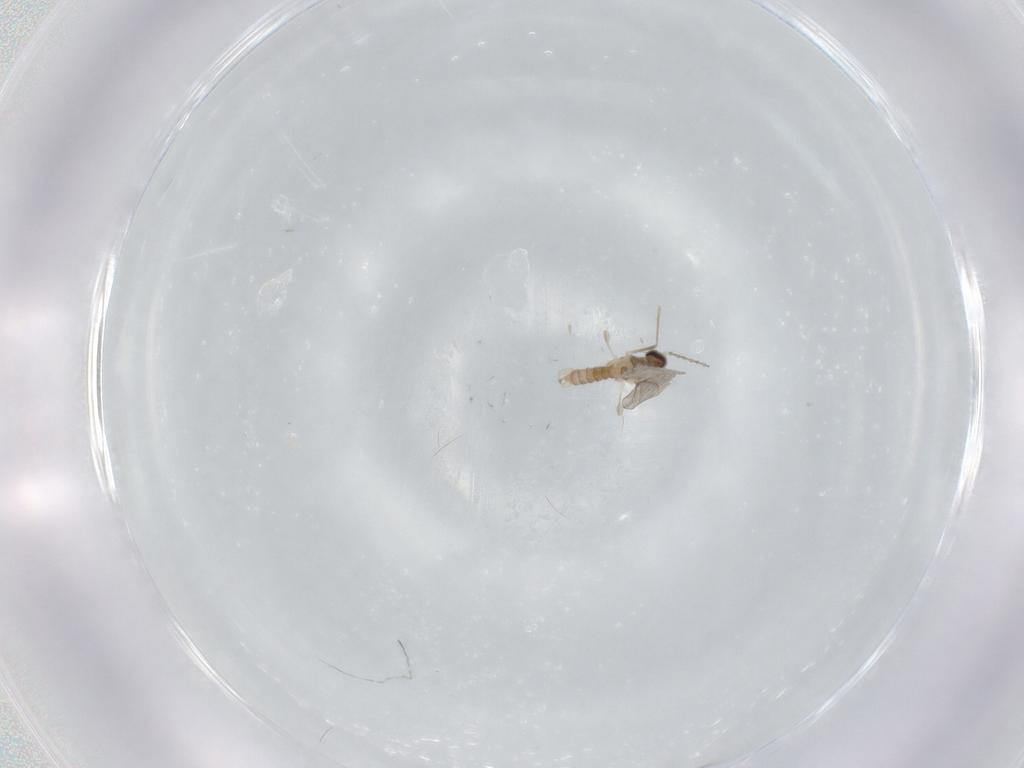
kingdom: Animalia
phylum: Arthropoda
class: Insecta
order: Diptera
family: Cecidomyiidae
